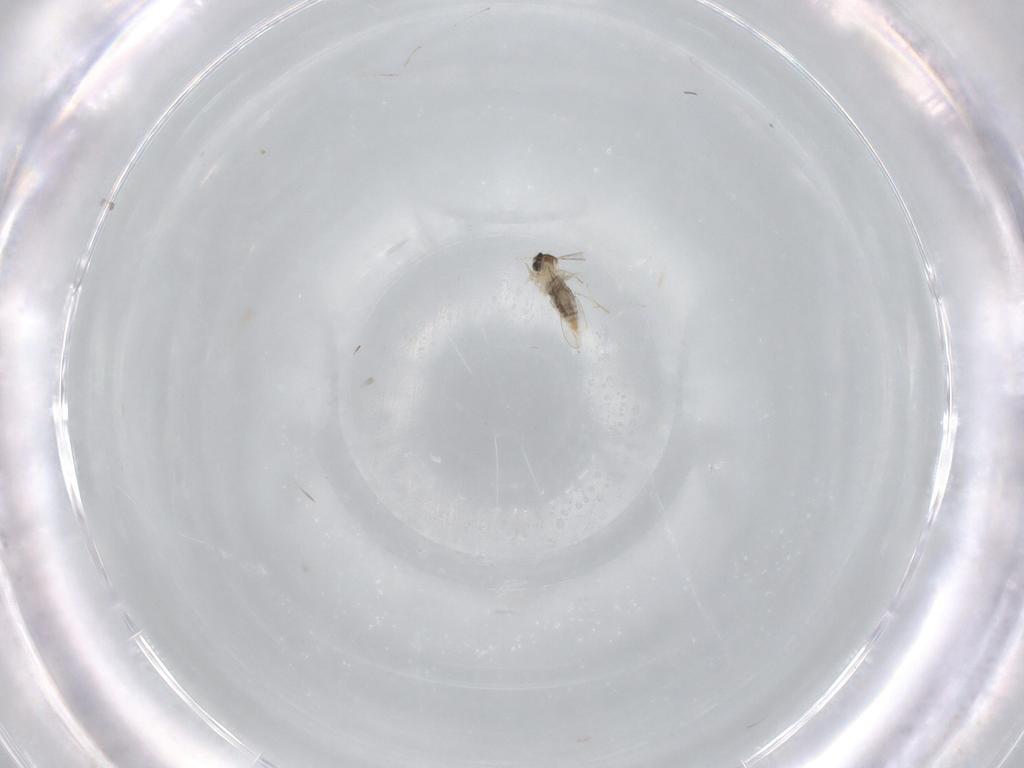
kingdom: Animalia
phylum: Arthropoda
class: Insecta
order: Diptera
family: Cecidomyiidae
